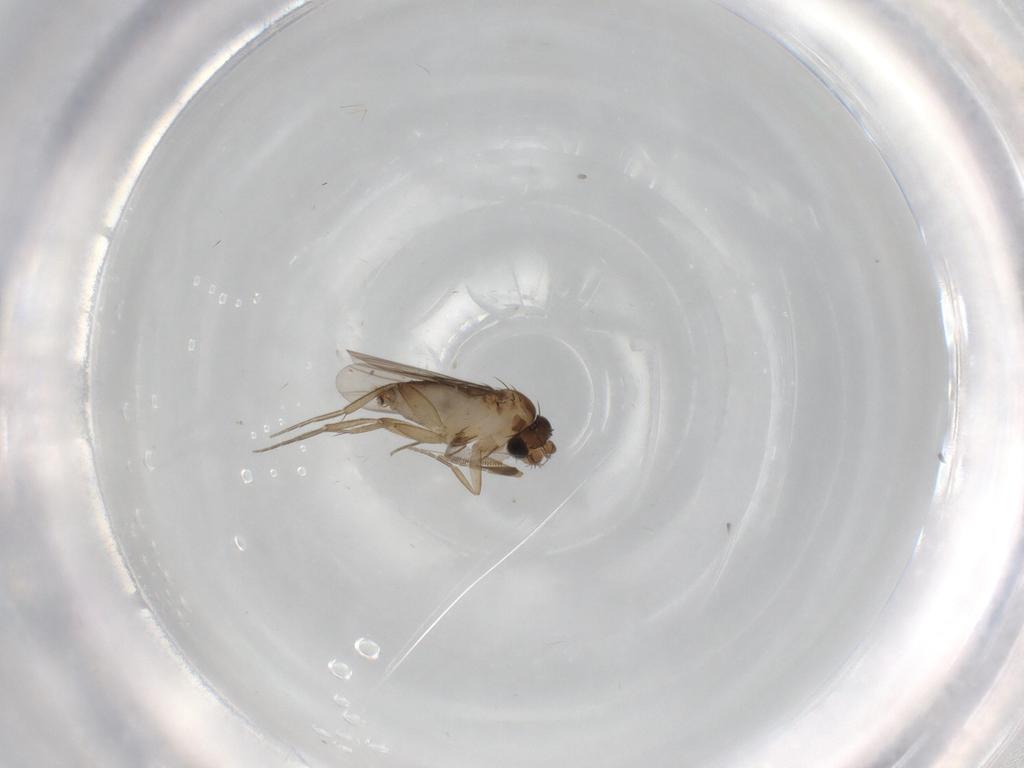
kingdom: Animalia
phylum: Arthropoda
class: Insecta
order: Diptera
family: Phoridae
